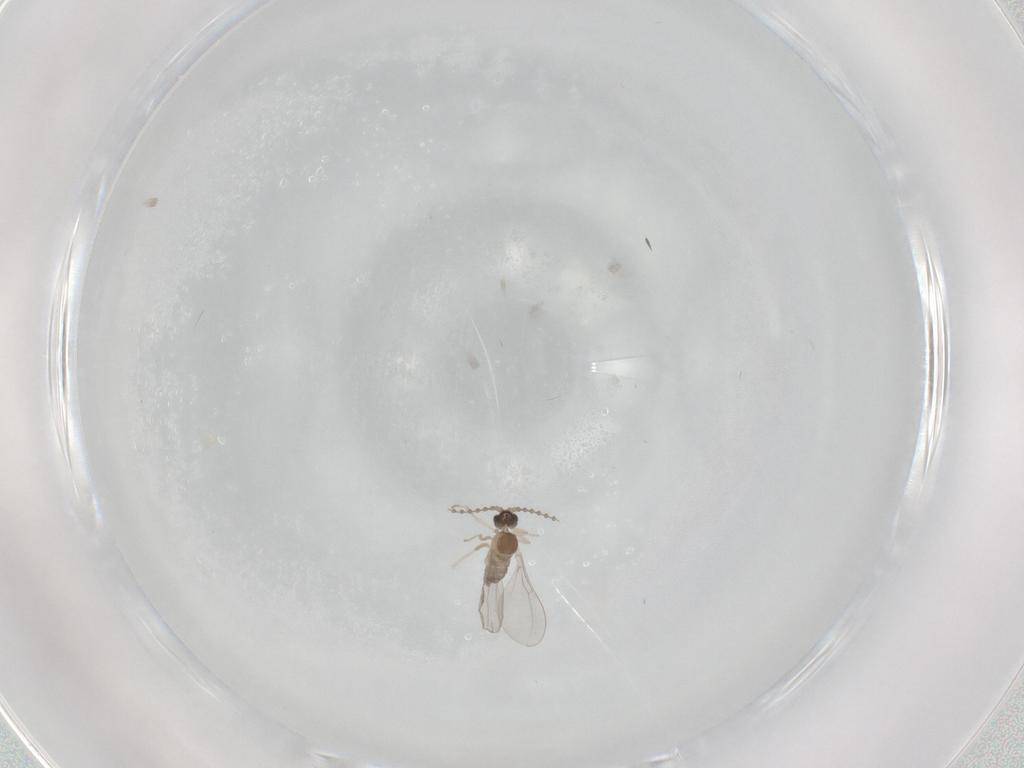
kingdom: Animalia
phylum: Arthropoda
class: Insecta
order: Diptera
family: Cecidomyiidae
